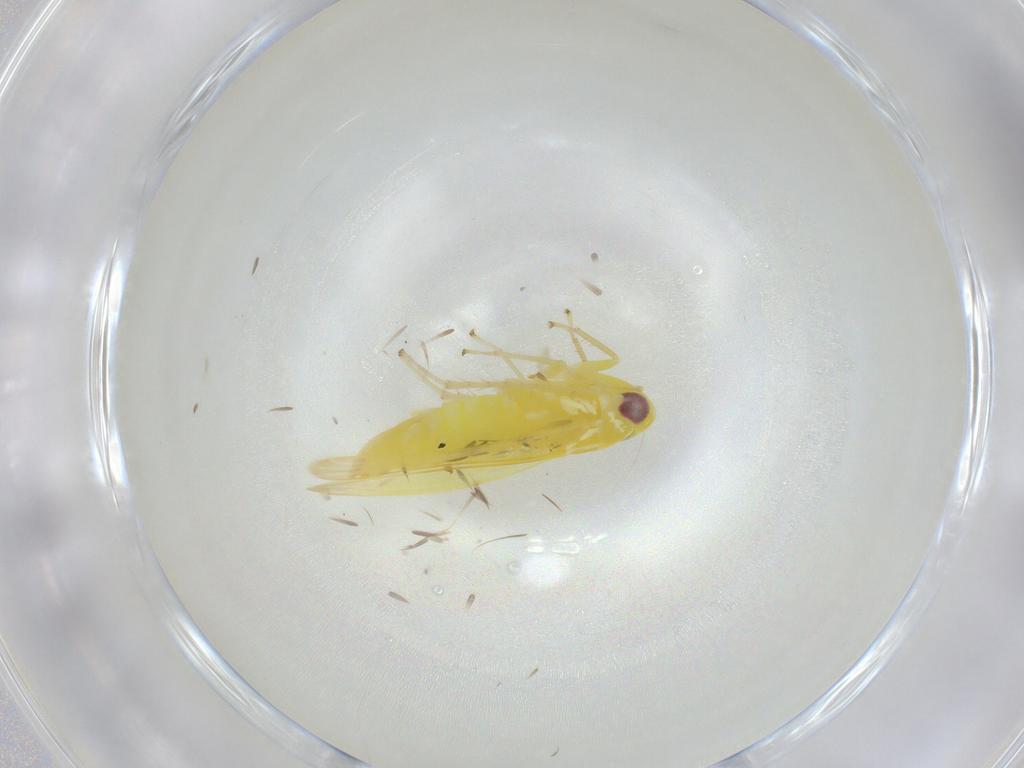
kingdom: Animalia
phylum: Arthropoda
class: Insecta
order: Hemiptera
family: Cicadellidae
